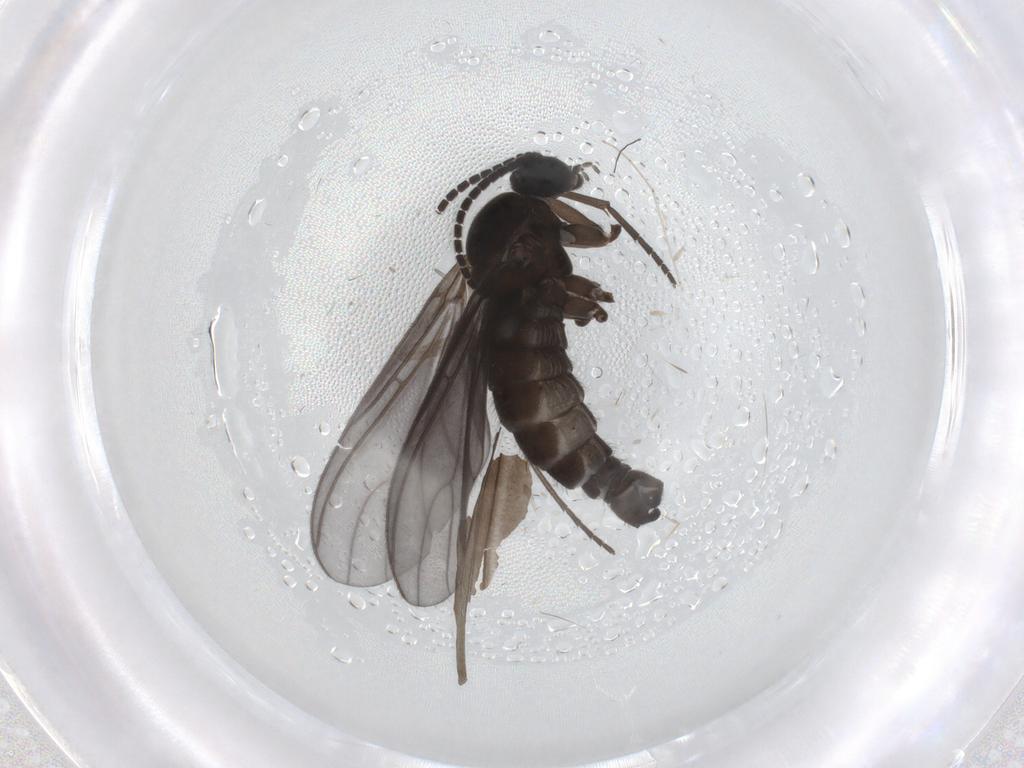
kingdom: Animalia
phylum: Arthropoda
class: Insecta
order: Diptera
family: Sciaridae
